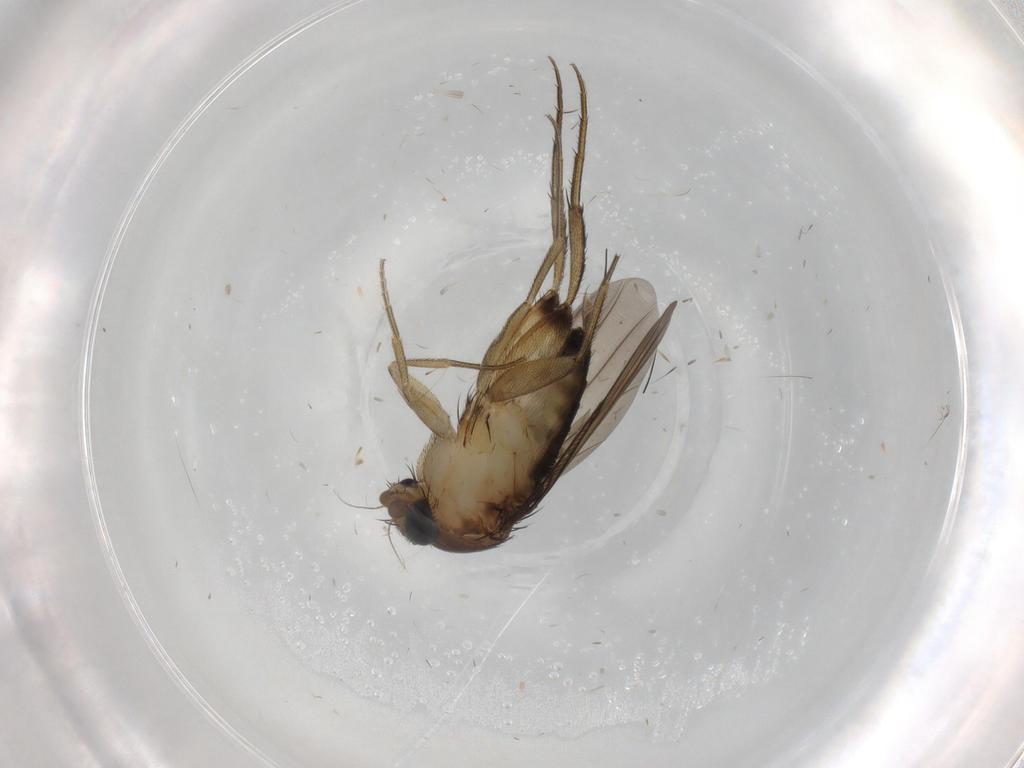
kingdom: Animalia
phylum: Arthropoda
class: Insecta
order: Diptera
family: Phoridae
